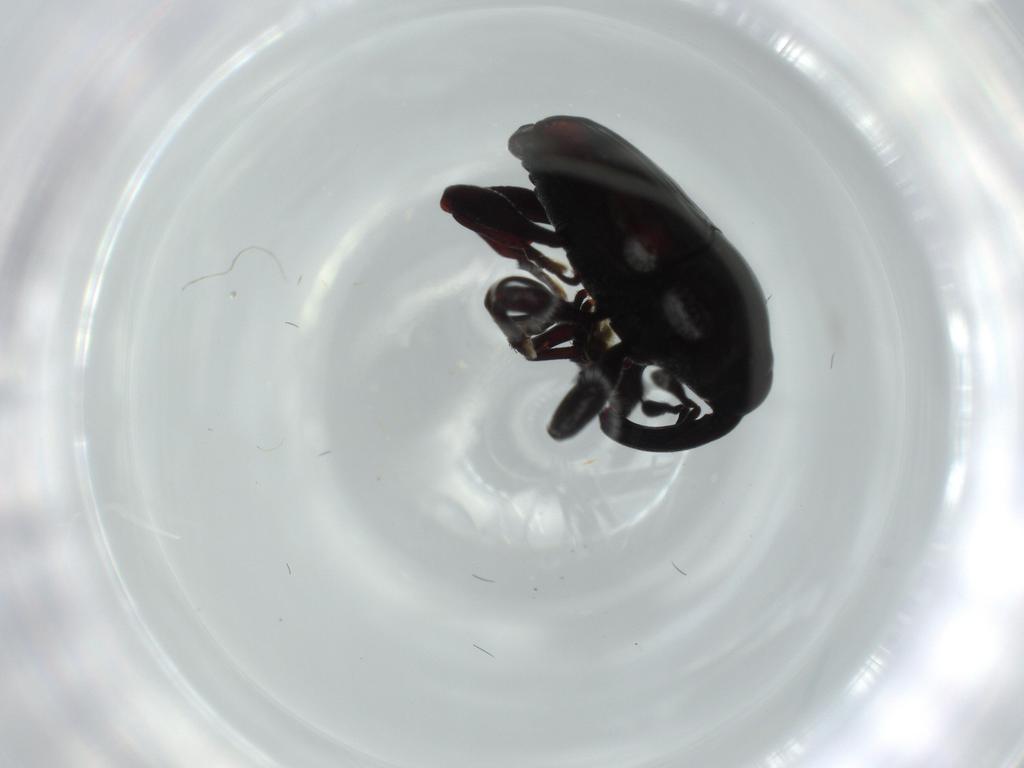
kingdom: Animalia
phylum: Arthropoda
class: Insecta
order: Coleoptera
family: Curculionidae
